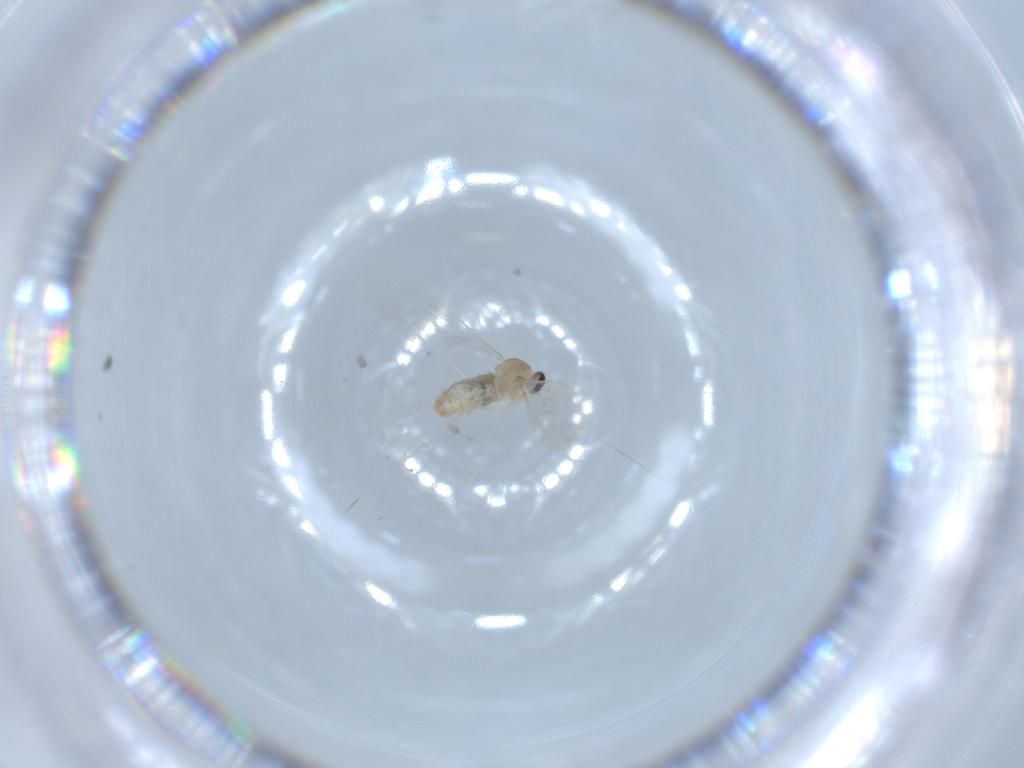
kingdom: Animalia
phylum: Arthropoda
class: Insecta
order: Diptera
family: Cecidomyiidae
